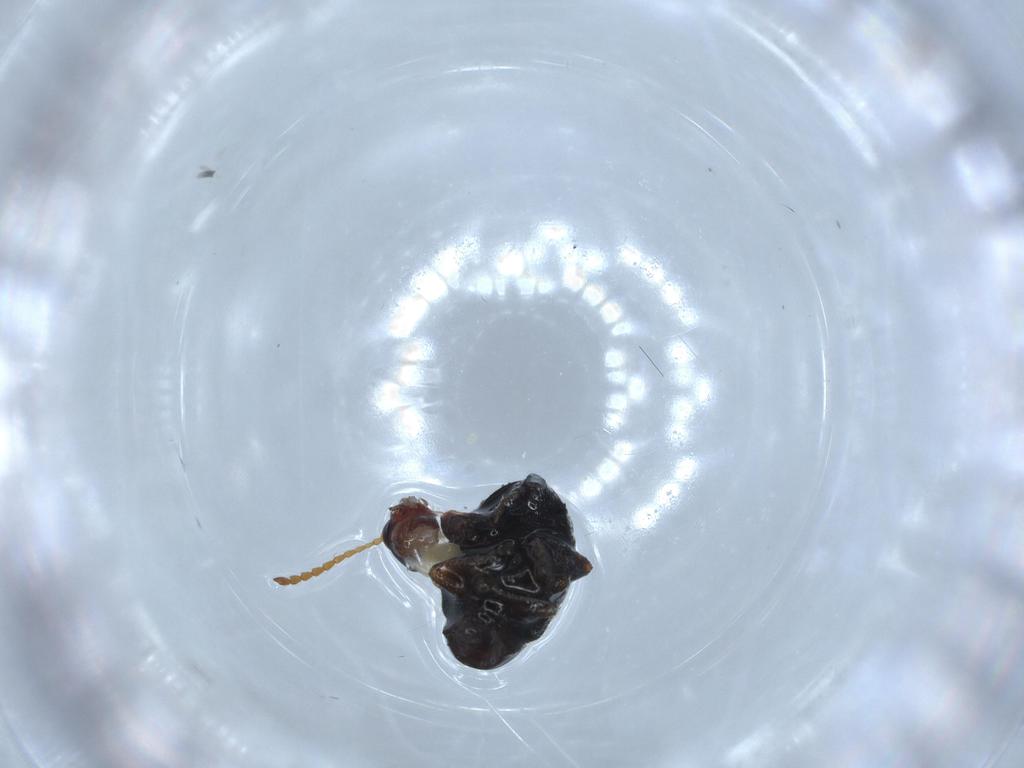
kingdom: Animalia
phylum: Arthropoda
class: Insecta
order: Coleoptera
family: Chrysomelidae
